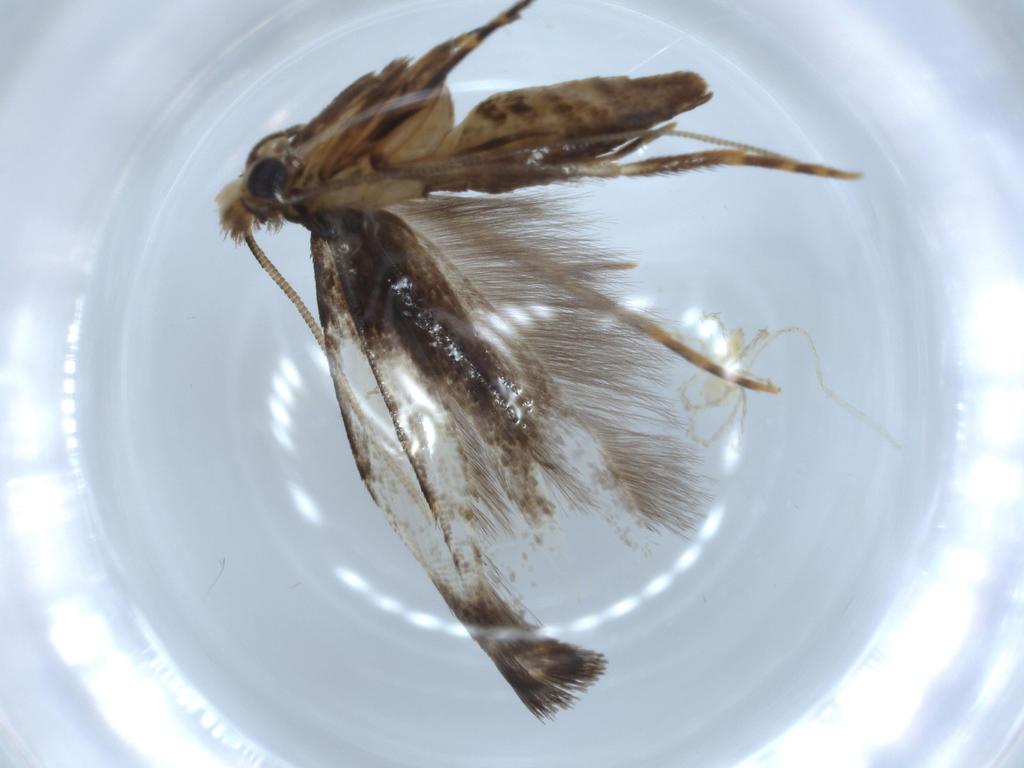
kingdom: Animalia
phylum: Arthropoda
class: Insecta
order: Lepidoptera
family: Tineidae
